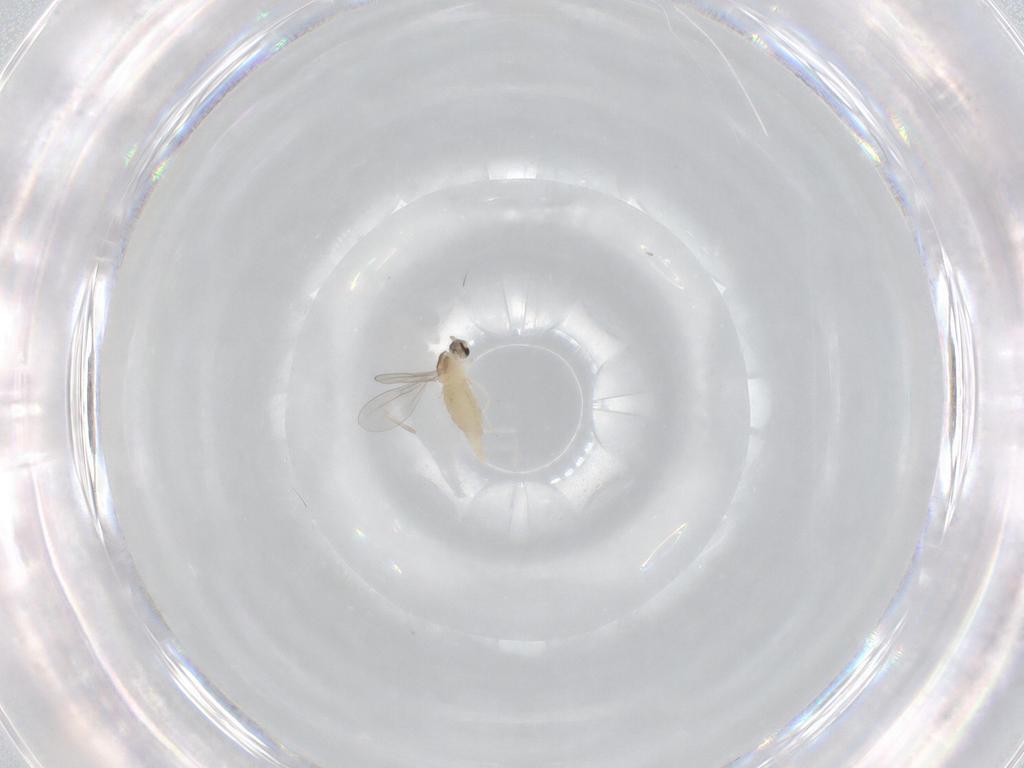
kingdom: Animalia
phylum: Arthropoda
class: Insecta
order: Diptera
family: Cecidomyiidae
